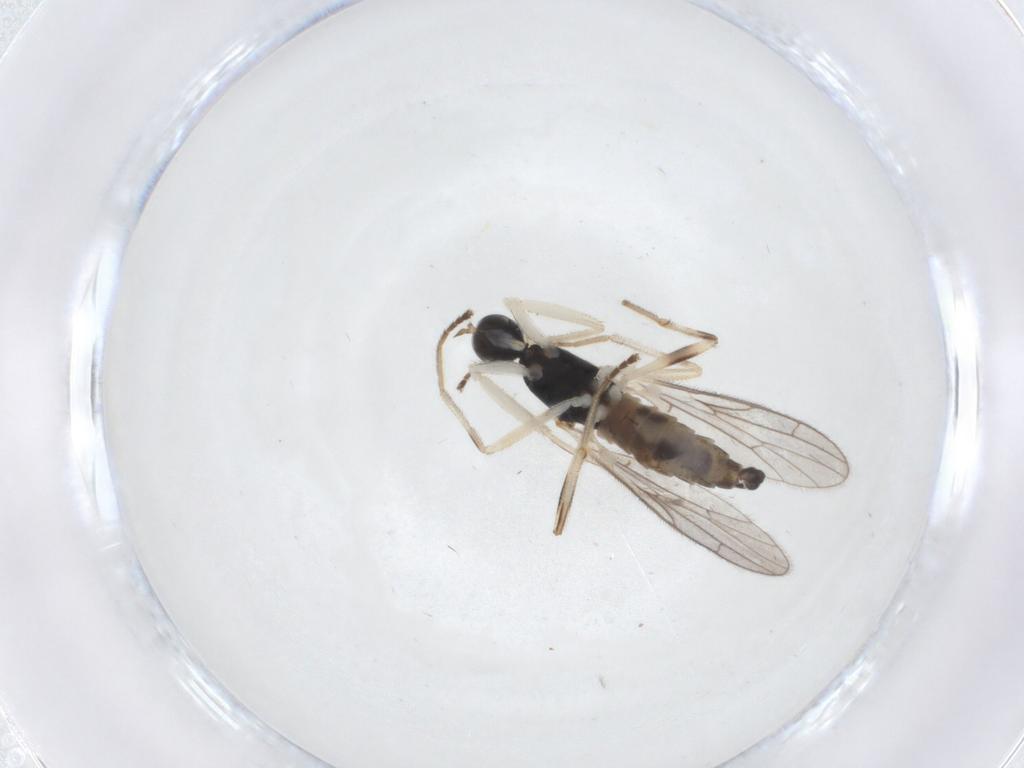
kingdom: Animalia
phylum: Arthropoda
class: Insecta
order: Diptera
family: Empididae
